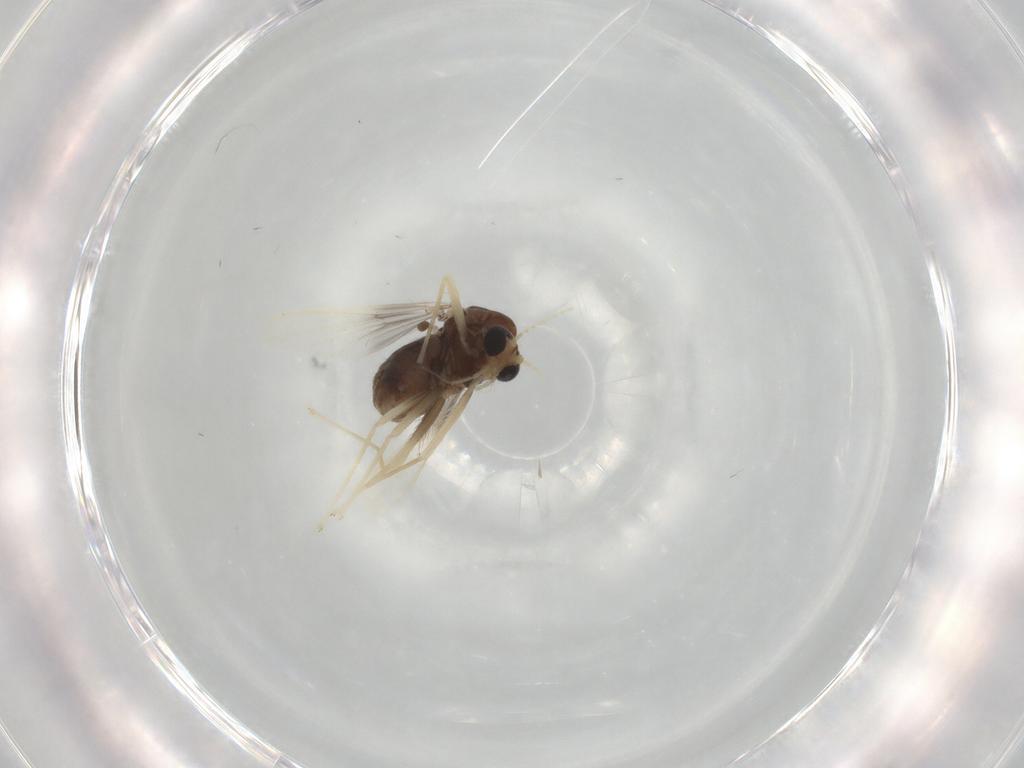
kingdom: Animalia
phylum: Arthropoda
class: Insecta
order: Diptera
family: Chironomidae
